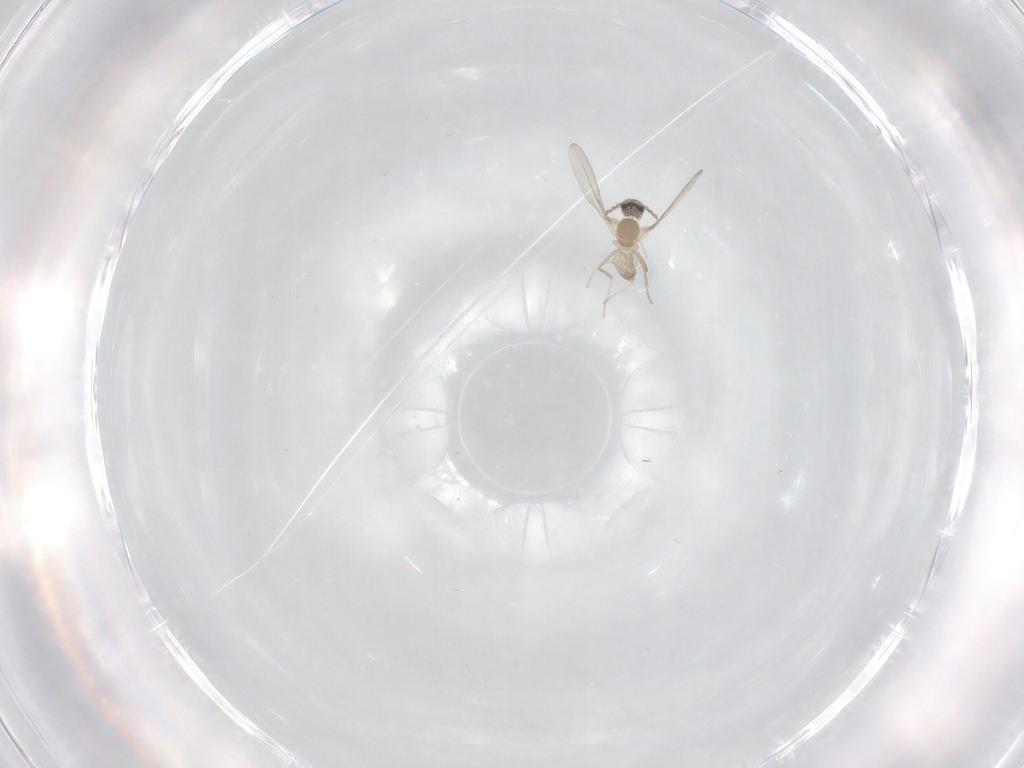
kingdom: Animalia
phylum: Arthropoda
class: Insecta
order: Diptera
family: Cecidomyiidae
